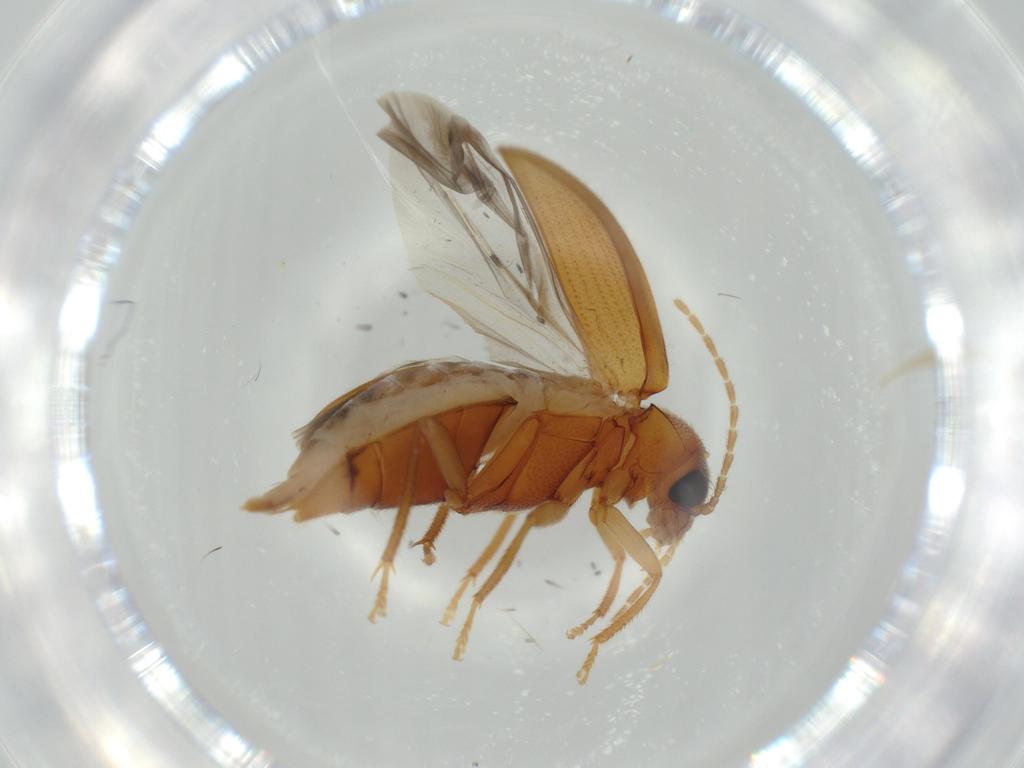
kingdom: Animalia
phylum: Arthropoda
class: Insecta
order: Coleoptera
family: Ptilodactylidae
